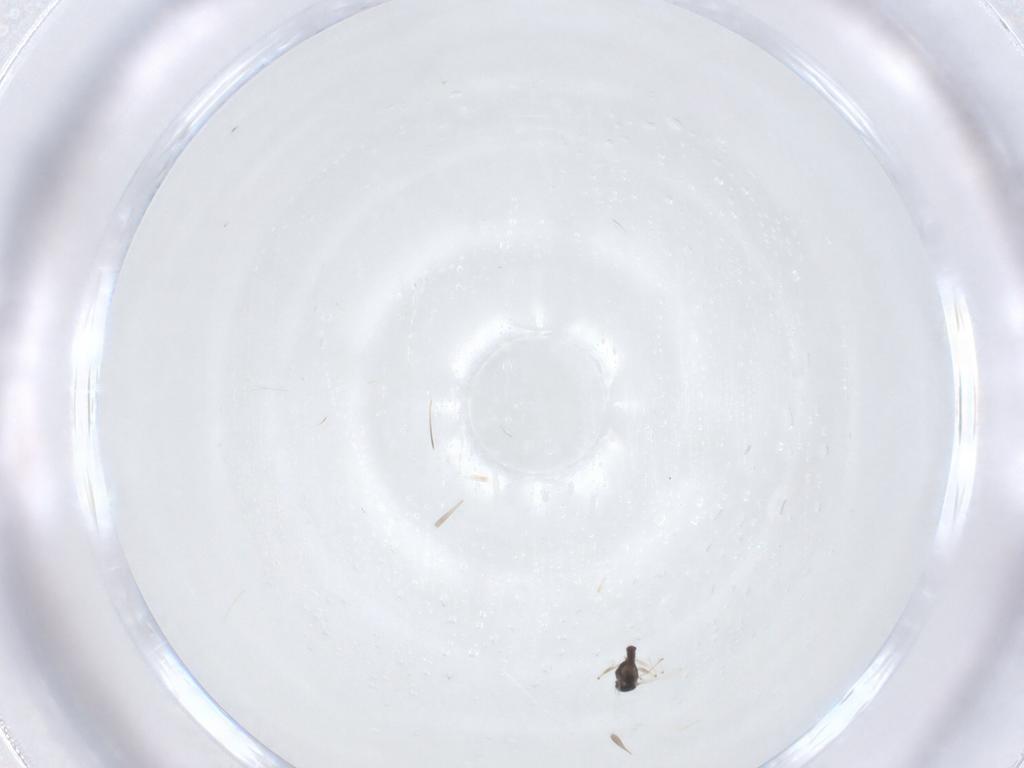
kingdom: Animalia
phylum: Arthropoda
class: Insecta
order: Diptera
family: Chironomidae
